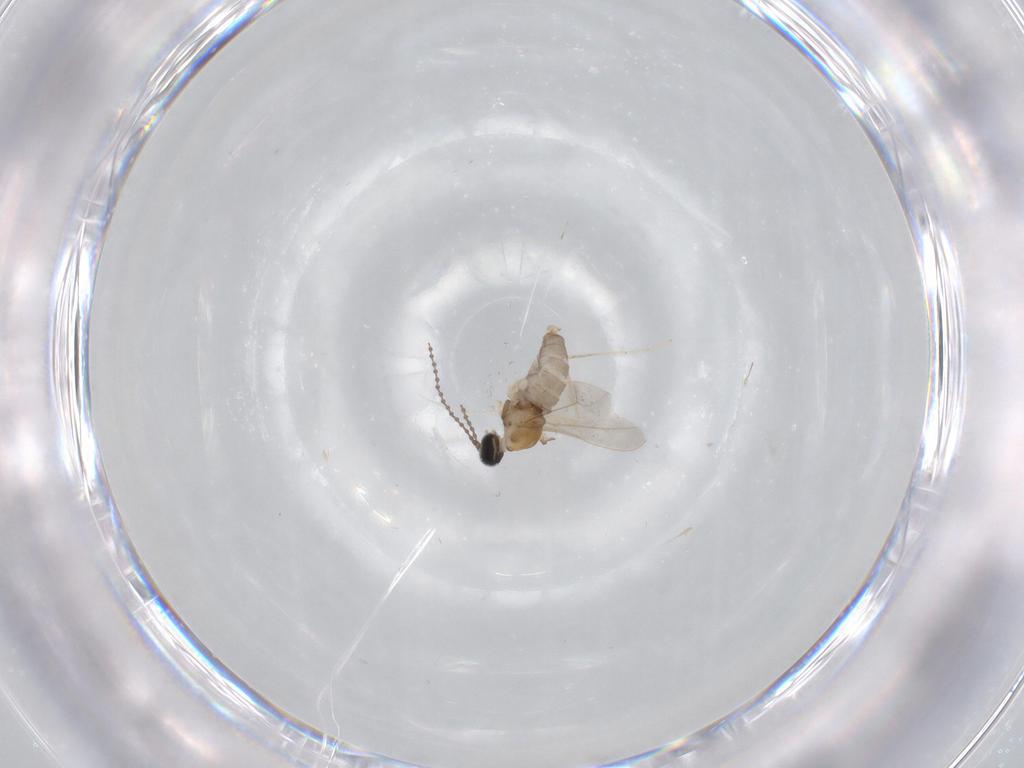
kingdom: Animalia
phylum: Arthropoda
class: Insecta
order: Diptera
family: Cecidomyiidae
